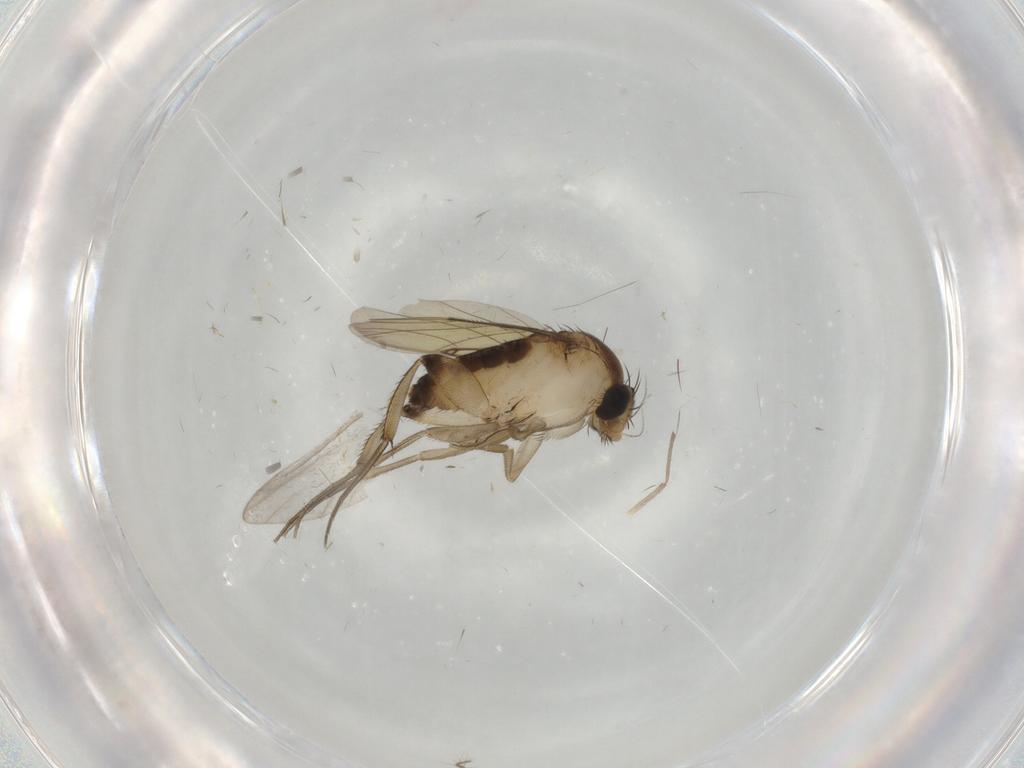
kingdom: Animalia
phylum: Arthropoda
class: Insecta
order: Diptera
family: Phoridae
